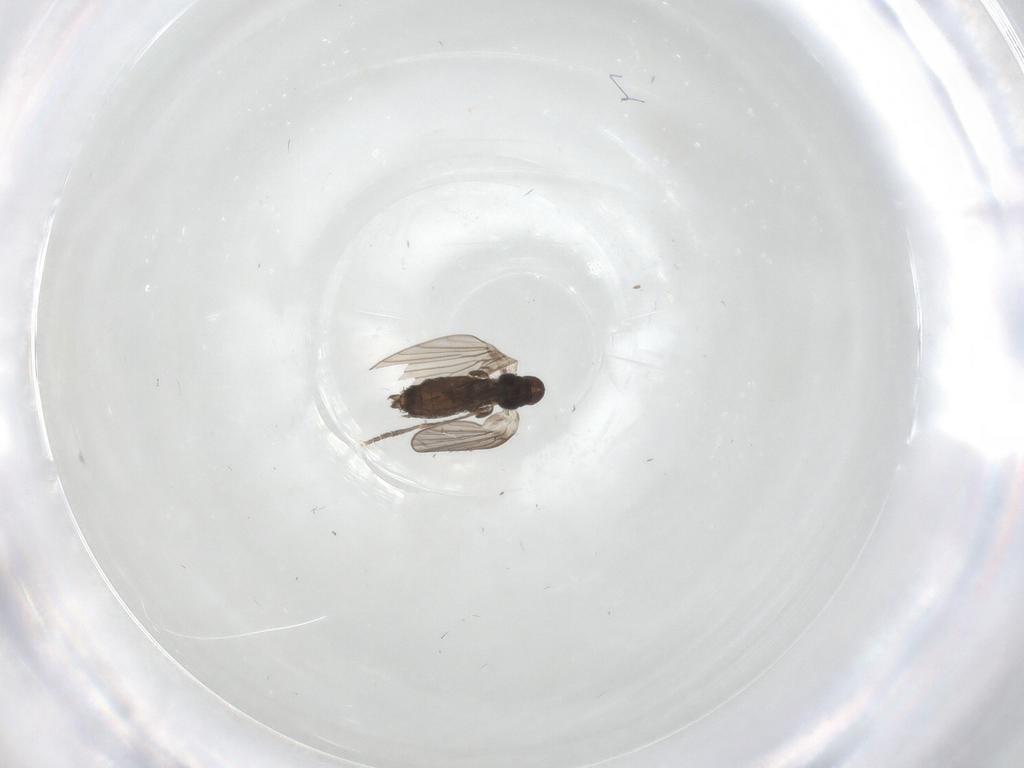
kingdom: Animalia
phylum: Arthropoda
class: Insecta
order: Diptera
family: Cecidomyiidae
